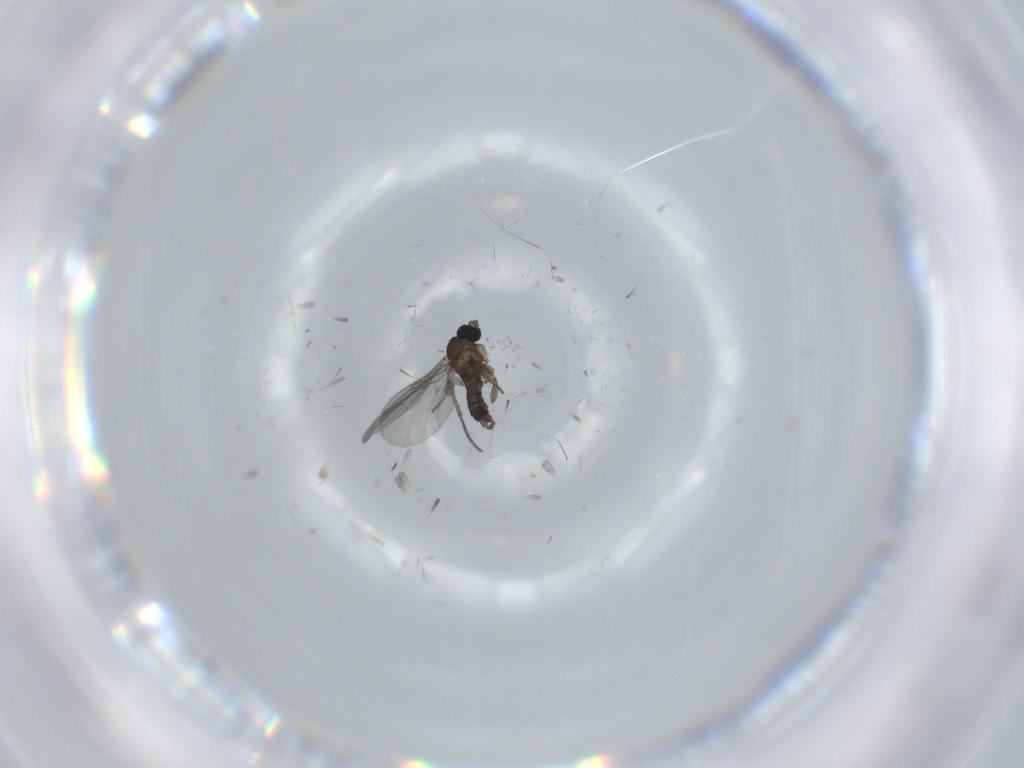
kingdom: Animalia
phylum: Arthropoda
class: Insecta
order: Diptera
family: Cecidomyiidae
